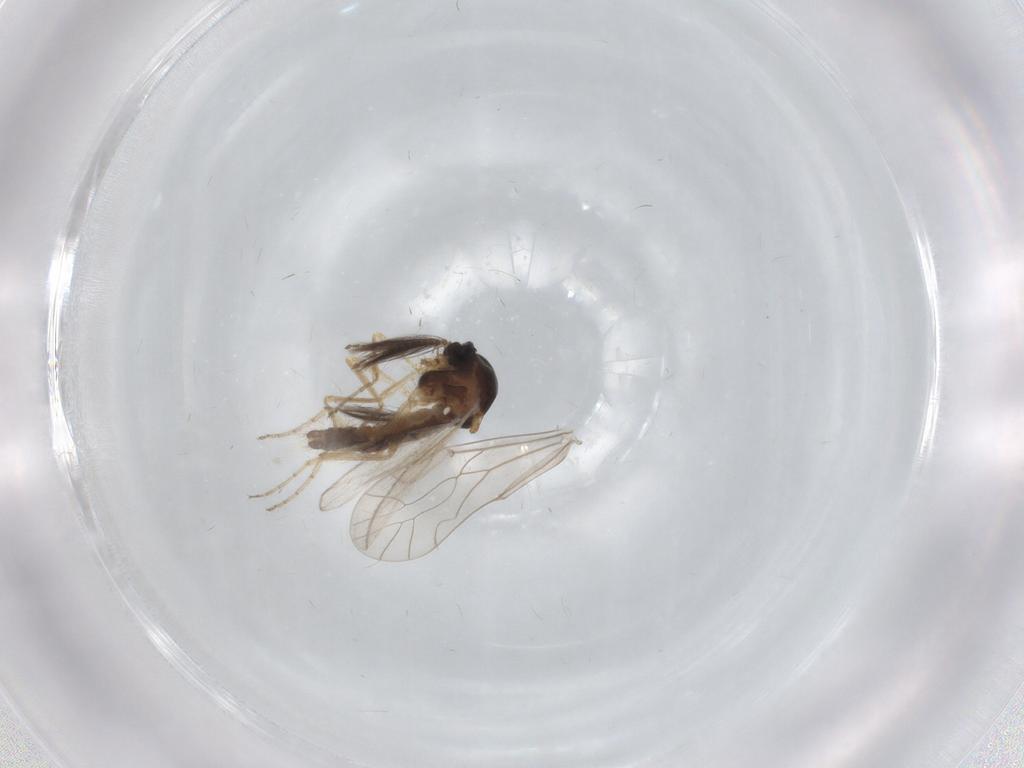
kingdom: Animalia
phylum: Arthropoda
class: Insecta
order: Diptera
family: Ceratopogonidae
